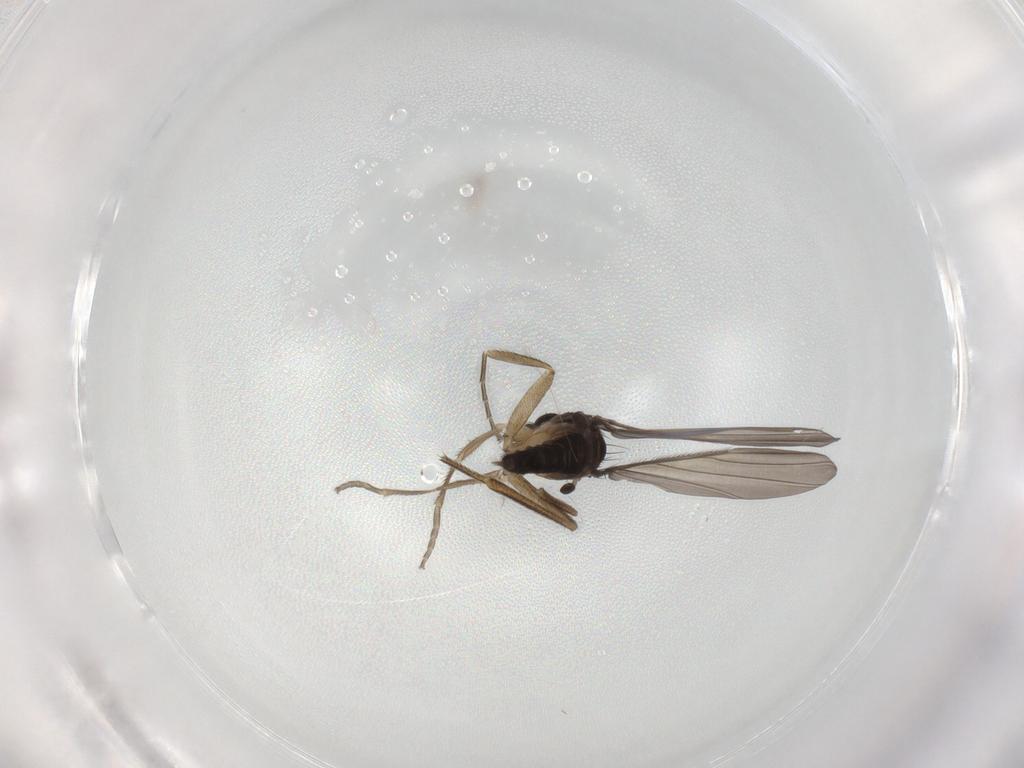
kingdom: Animalia
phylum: Arthropoda
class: Insecta
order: Diptera
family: Phoridae
